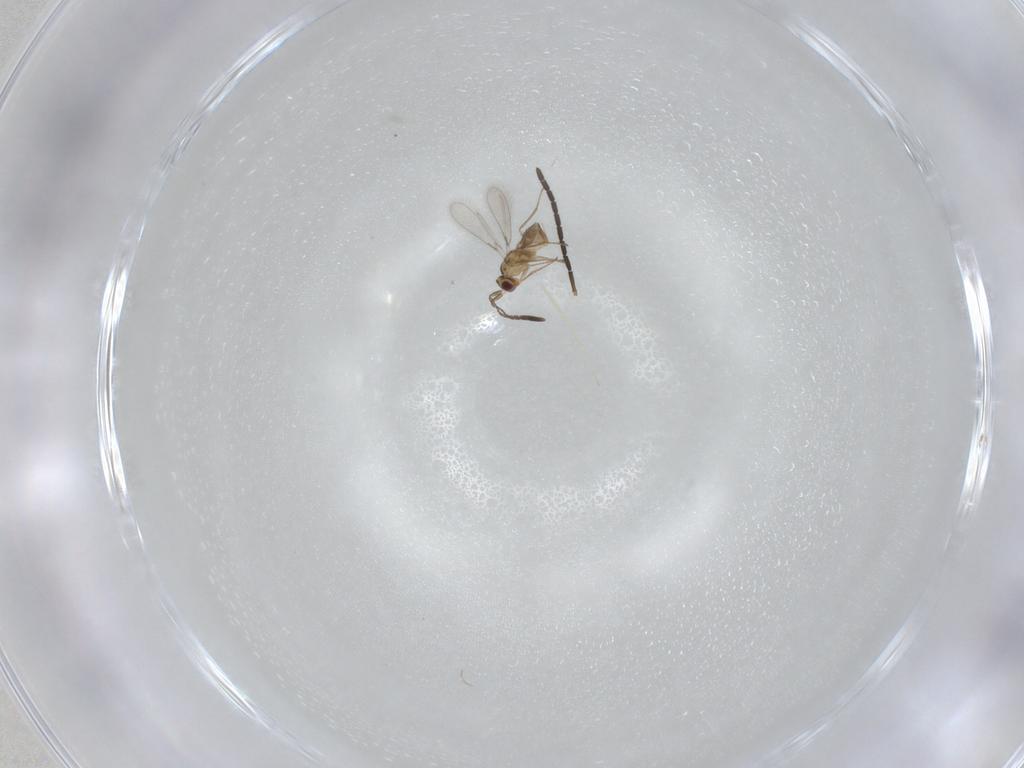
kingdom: Animalia
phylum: Arthropoda
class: Insecta
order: Hymenoptera
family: Braconidae
